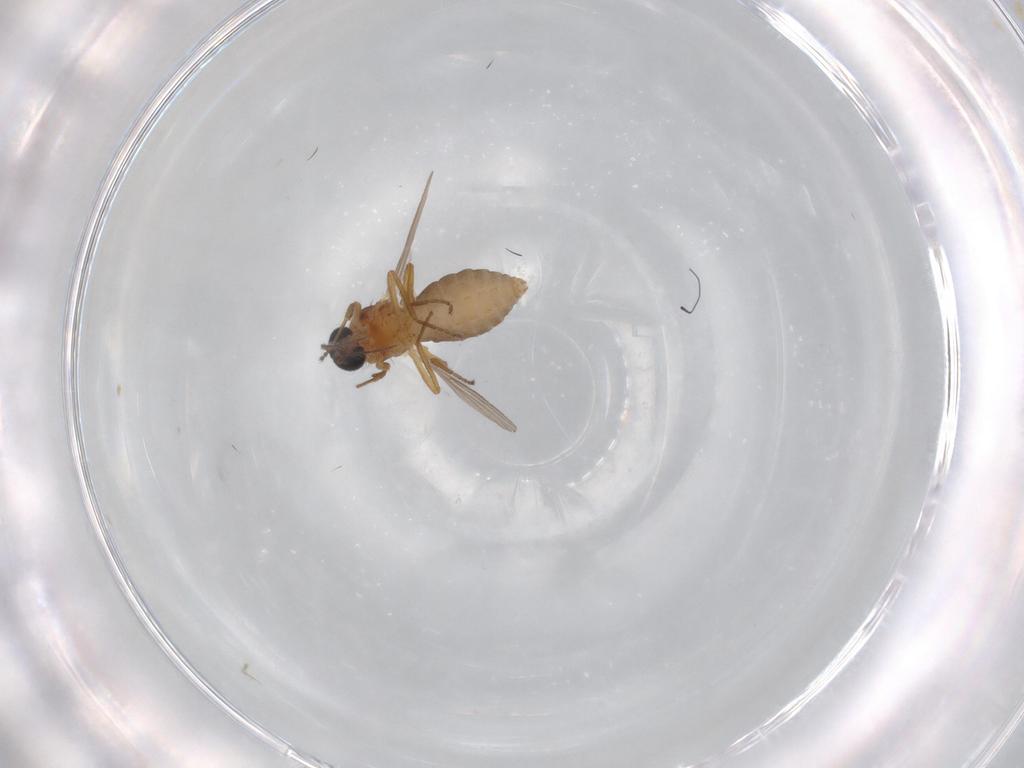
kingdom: Animalia
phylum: Arthropoda
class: Insecta
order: Diptera
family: Ceratopogonidae
